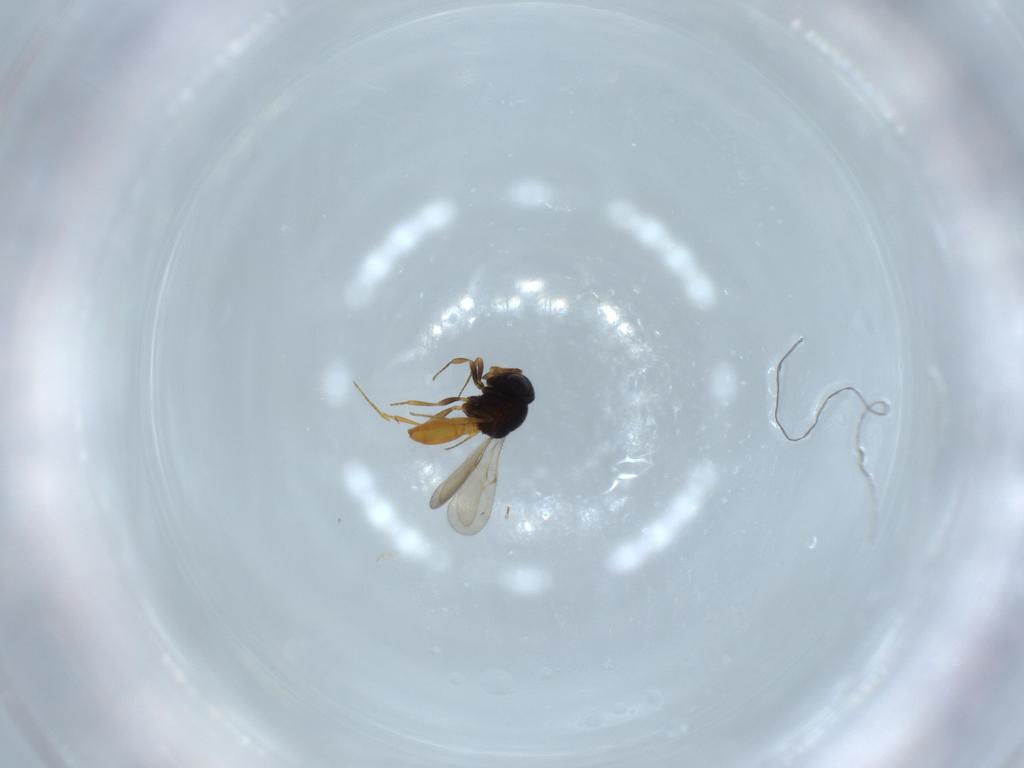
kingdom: Animalia
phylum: Arthropoda
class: Insecta
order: Hymenoptera
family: Scelionidae
